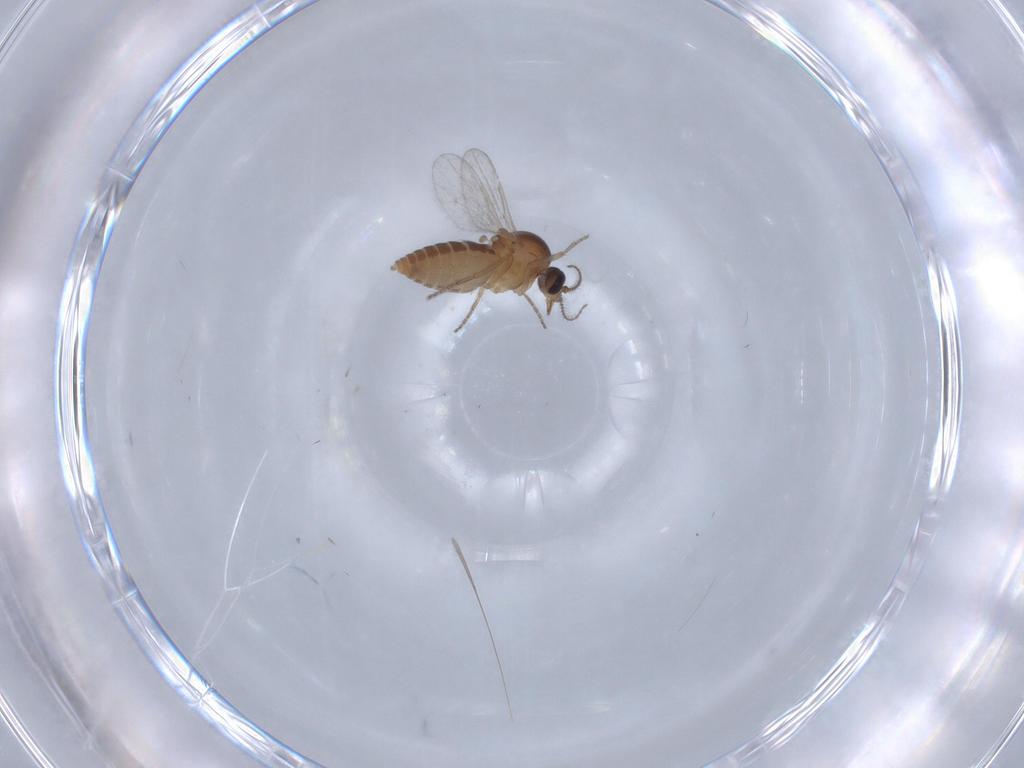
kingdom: Animalia
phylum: Arthropoda
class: Insecta
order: Diptera
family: Ceratopogonidae
